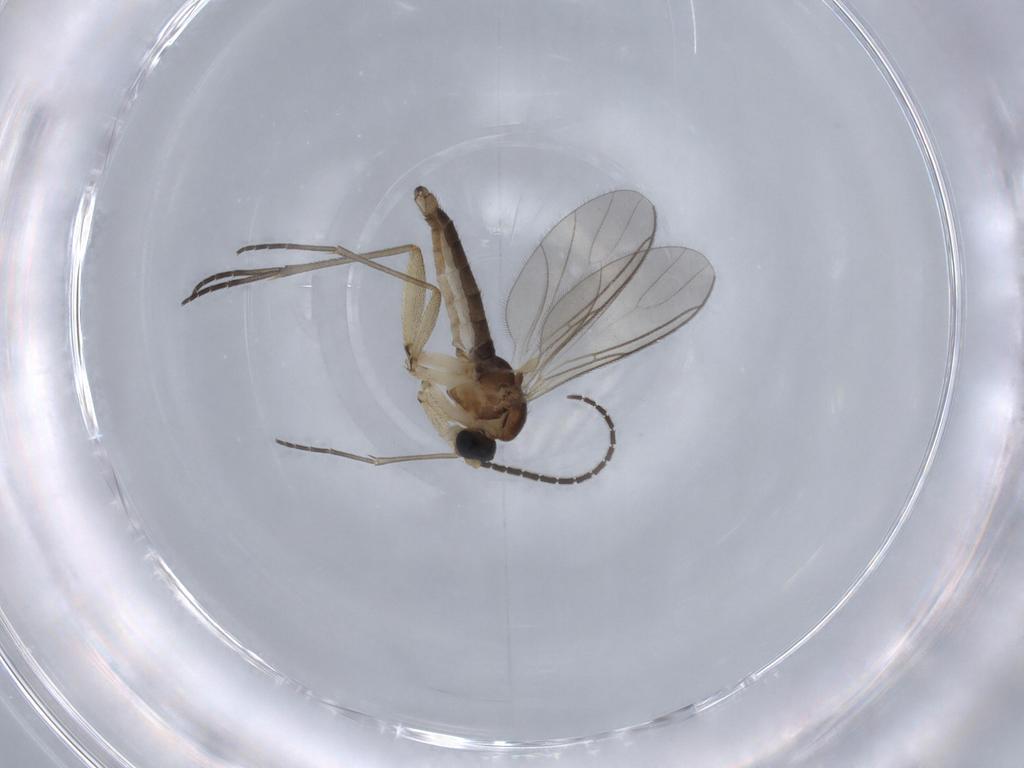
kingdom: Animalia
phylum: Arthropoda
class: Insecta
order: Diptera
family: Sciaridae
